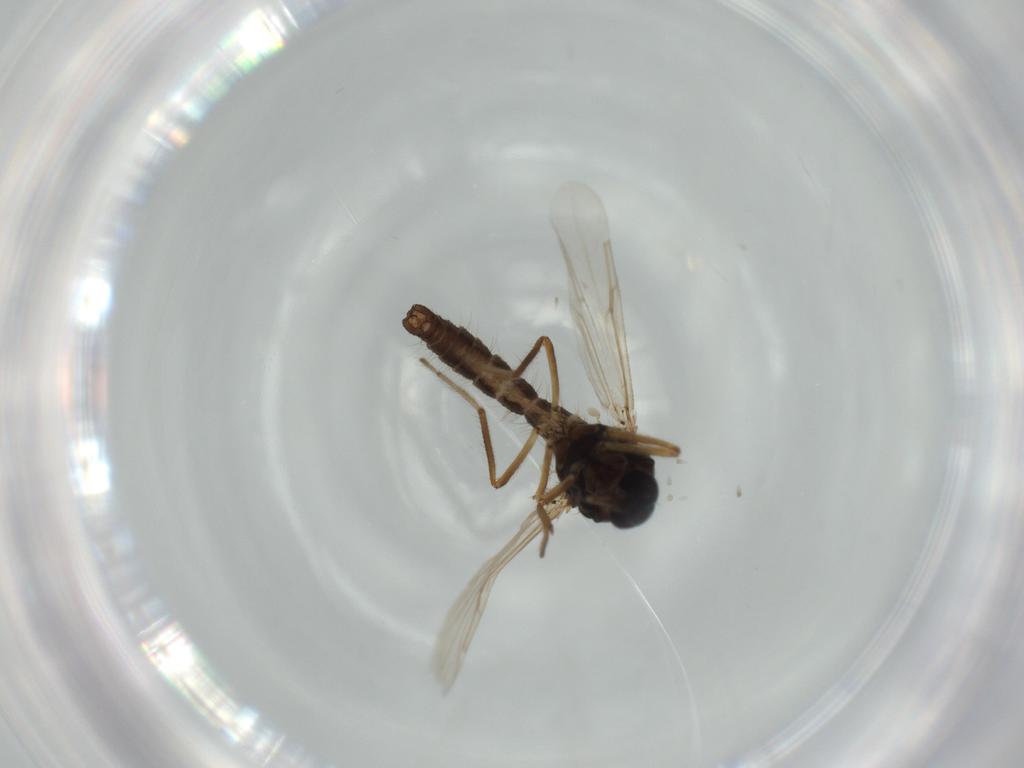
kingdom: Animalia
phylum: Arthropoda
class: Insecta
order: Diptera
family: Ceratopogonidae
